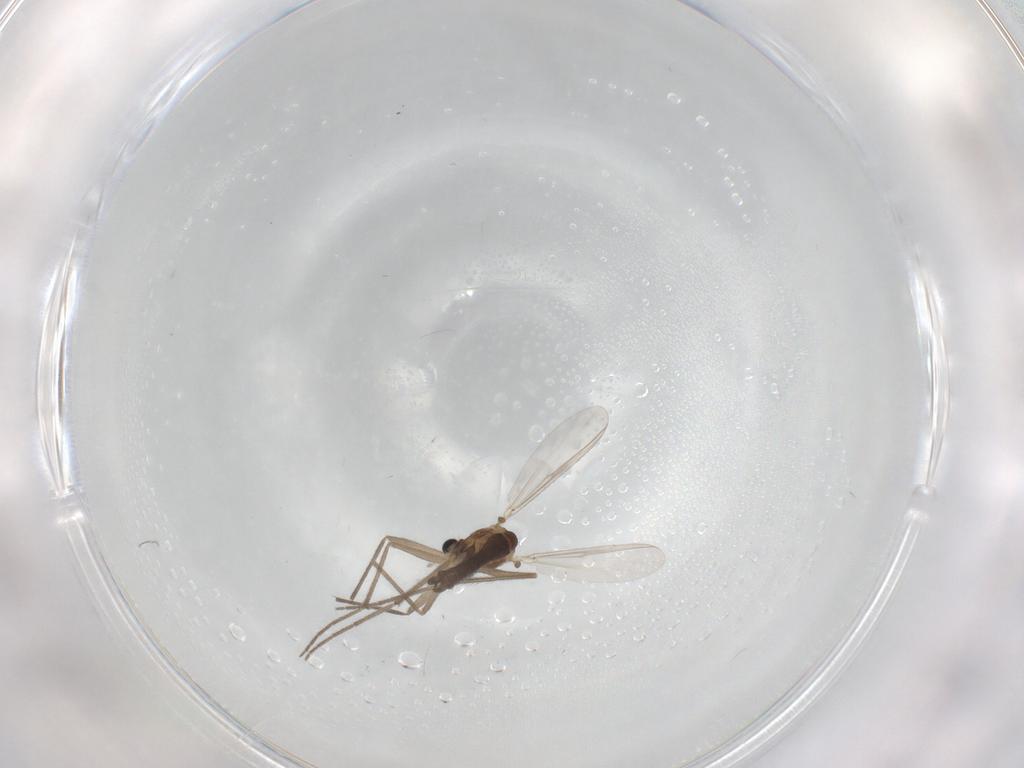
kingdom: Animalia
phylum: Arthropoda
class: Insecta
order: Diptera
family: Chironomidae
